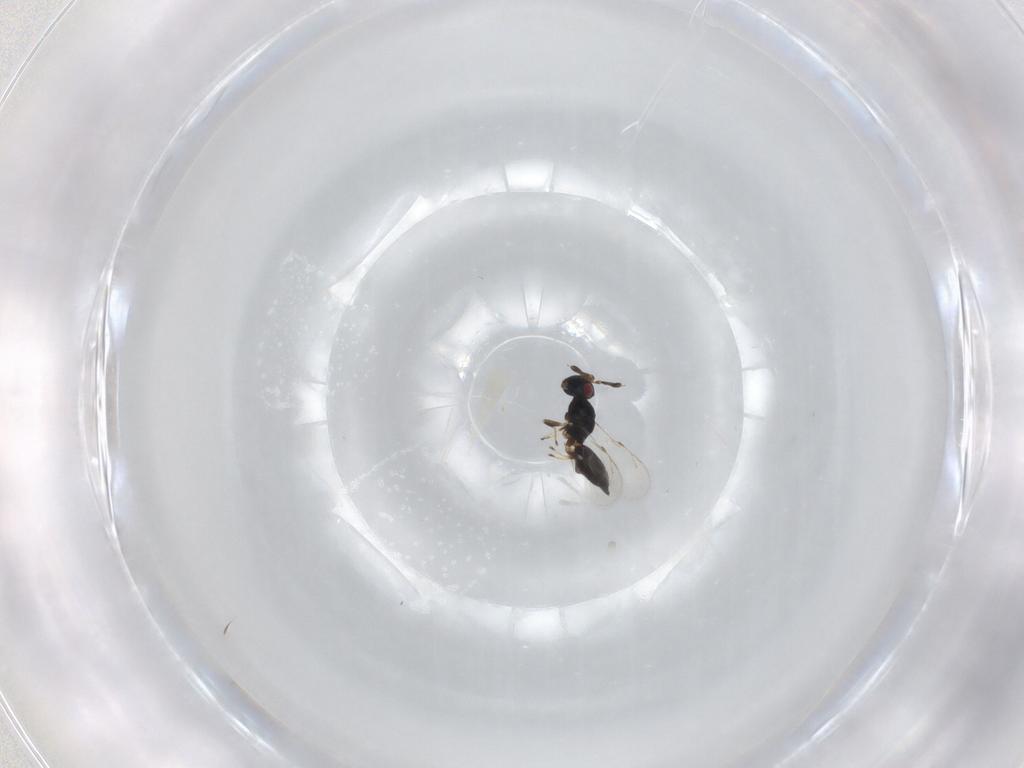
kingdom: Animalia
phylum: Arthropoda
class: Insecta
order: Hymenoptera
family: Pteromalidae
